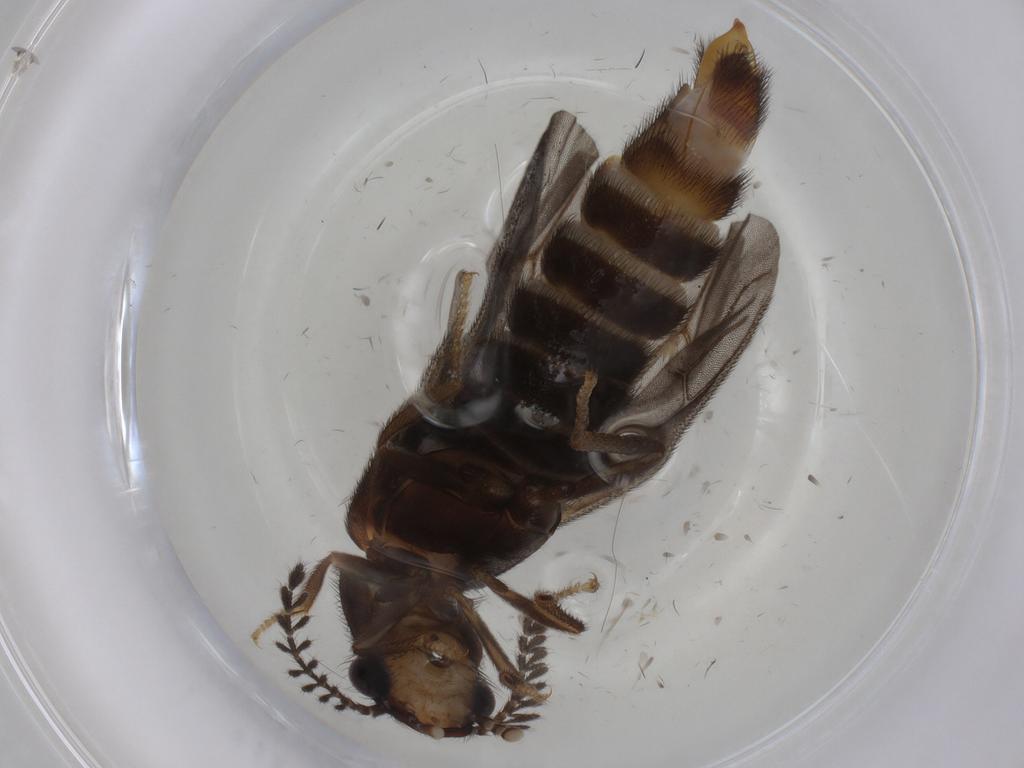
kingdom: Animalia
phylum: Arthropoda
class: Insecta
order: Coleoptera
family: Phengodidae
